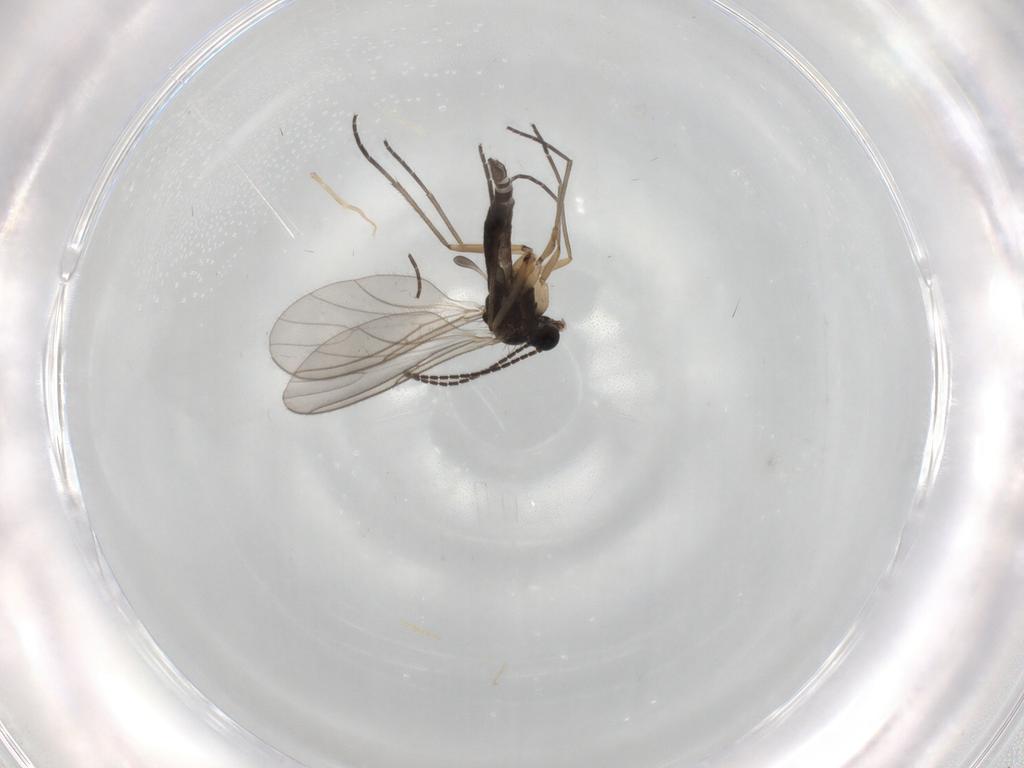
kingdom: Animalia
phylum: Arthropoda
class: Insecta
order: Diptera
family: Sciaridae
